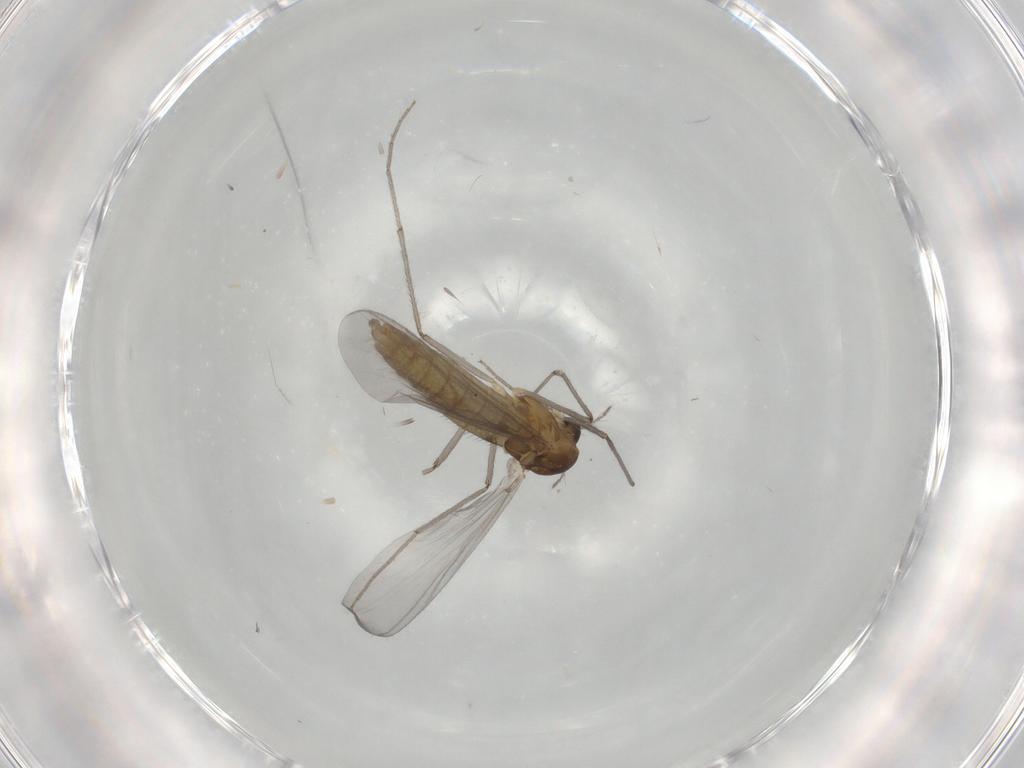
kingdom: Animalia
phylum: Arthropoda
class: Insecta
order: Diptera
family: Chironomidae
